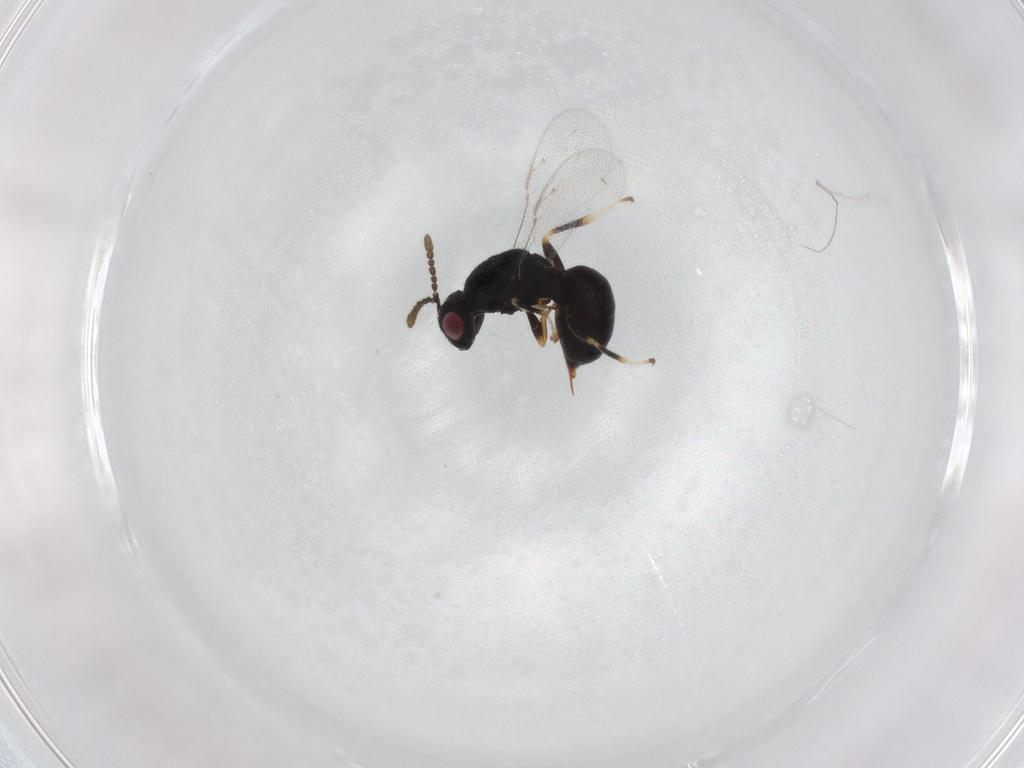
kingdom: Animalia
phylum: Arthropoda
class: Insecta
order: Hymenoptera
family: Eurytomidae
